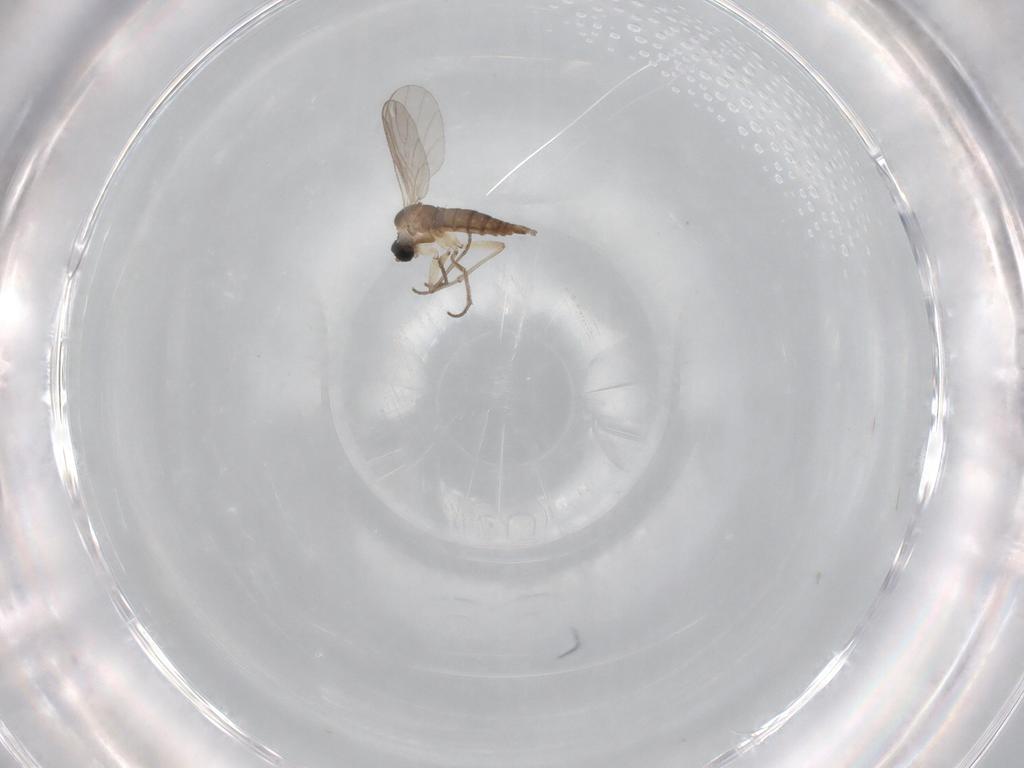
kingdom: Animalia
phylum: Arthropoda
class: Insecta
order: Diptera
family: Sciaridae
